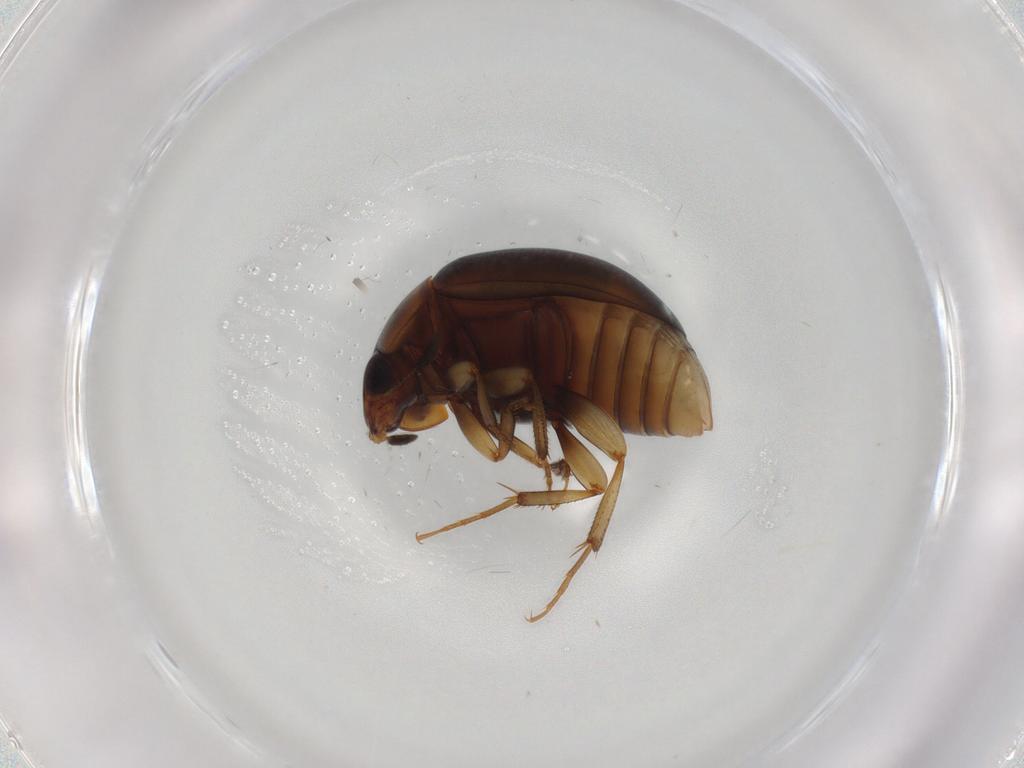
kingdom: Animalia
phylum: Arthropoda
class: Insecta
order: Coleoptera
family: Nitidulidae
